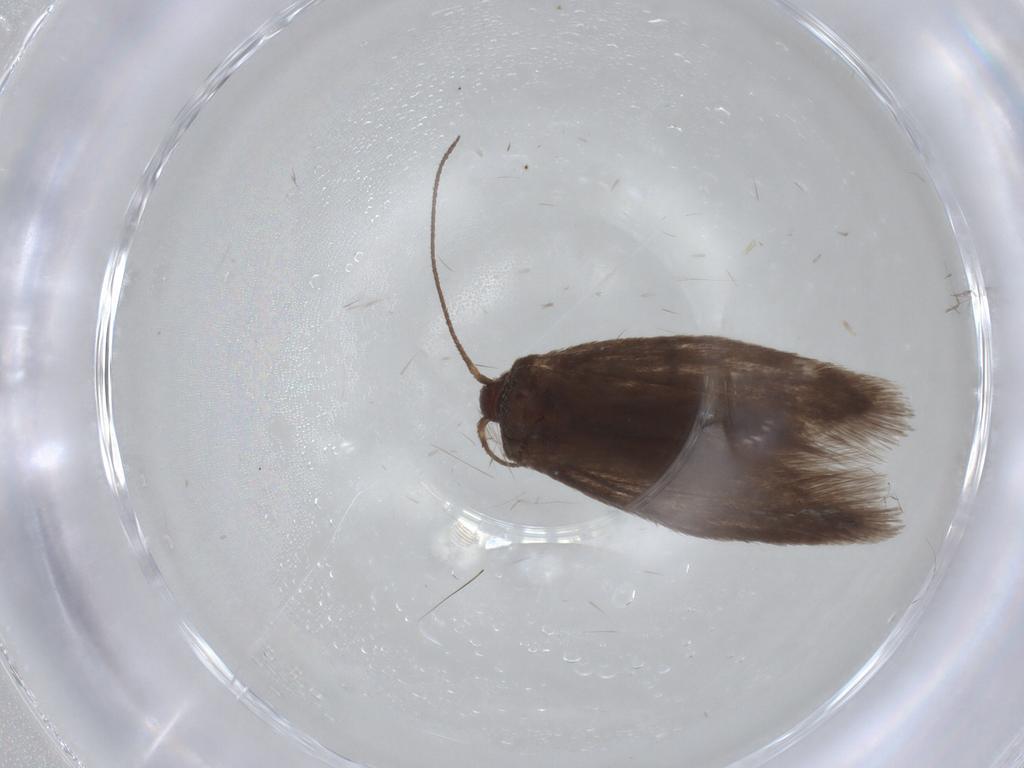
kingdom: Animalia
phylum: Arthropoda
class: Insecta
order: Lepidoptera
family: Limacodidae
